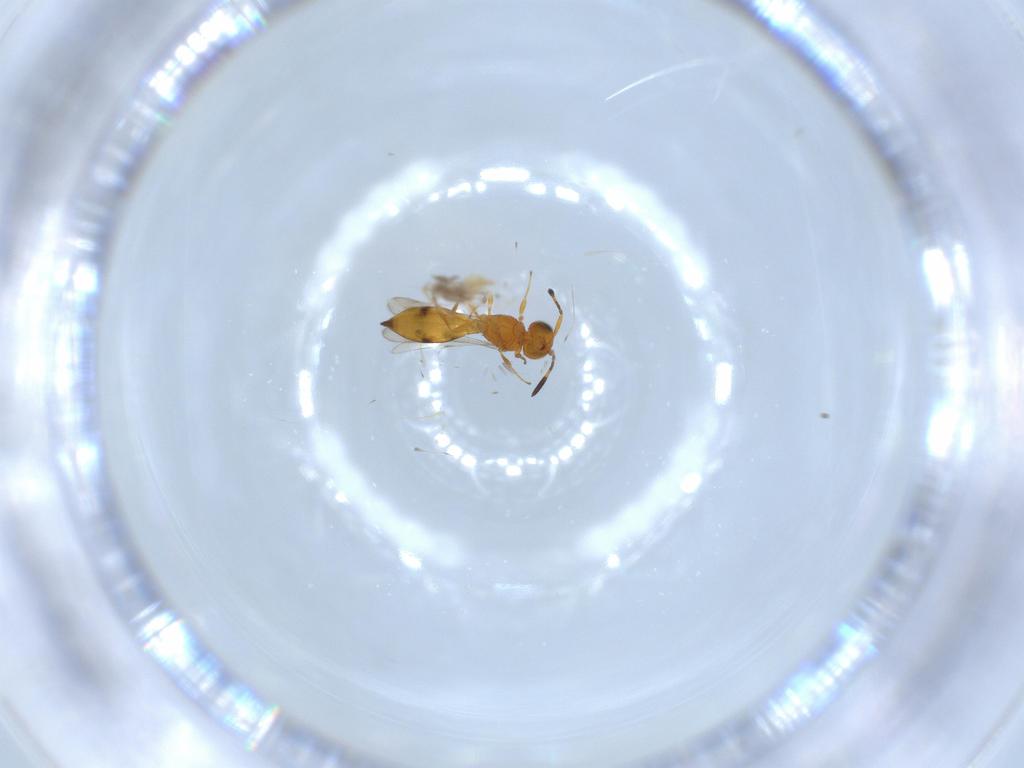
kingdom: Animalia
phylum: Arthropoda
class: Insecta
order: Hymenoptera
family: Scelionidae
